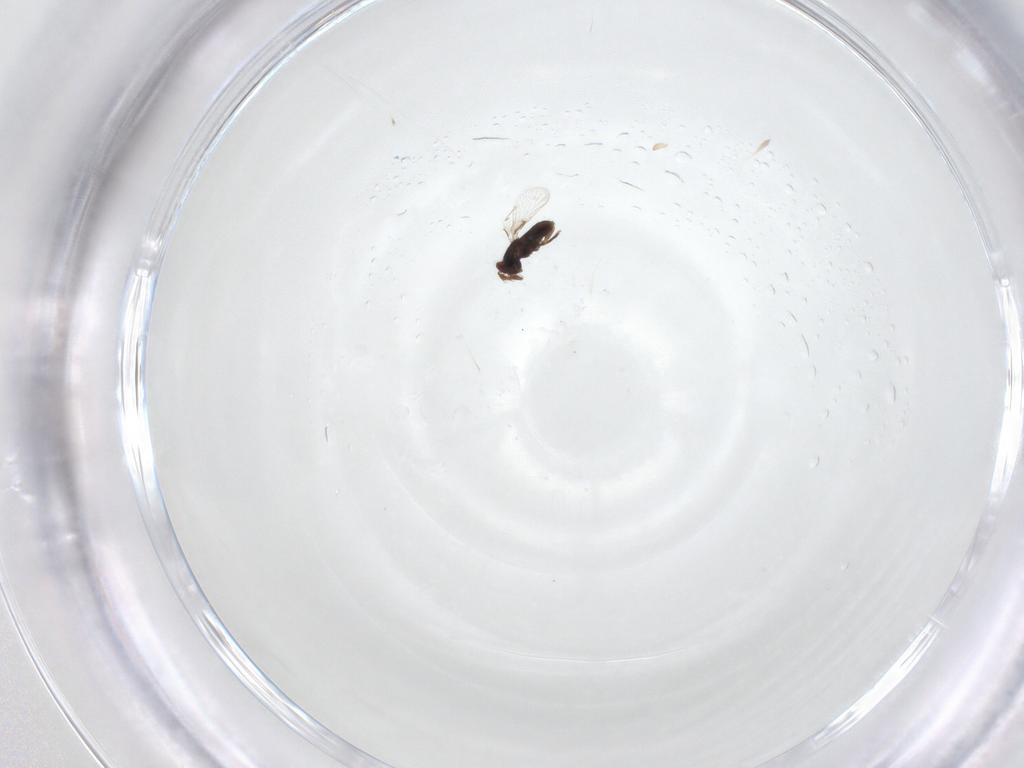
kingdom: Animalia
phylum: Arthropoda
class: Insecta
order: Hymenoptera
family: Agaonidae
